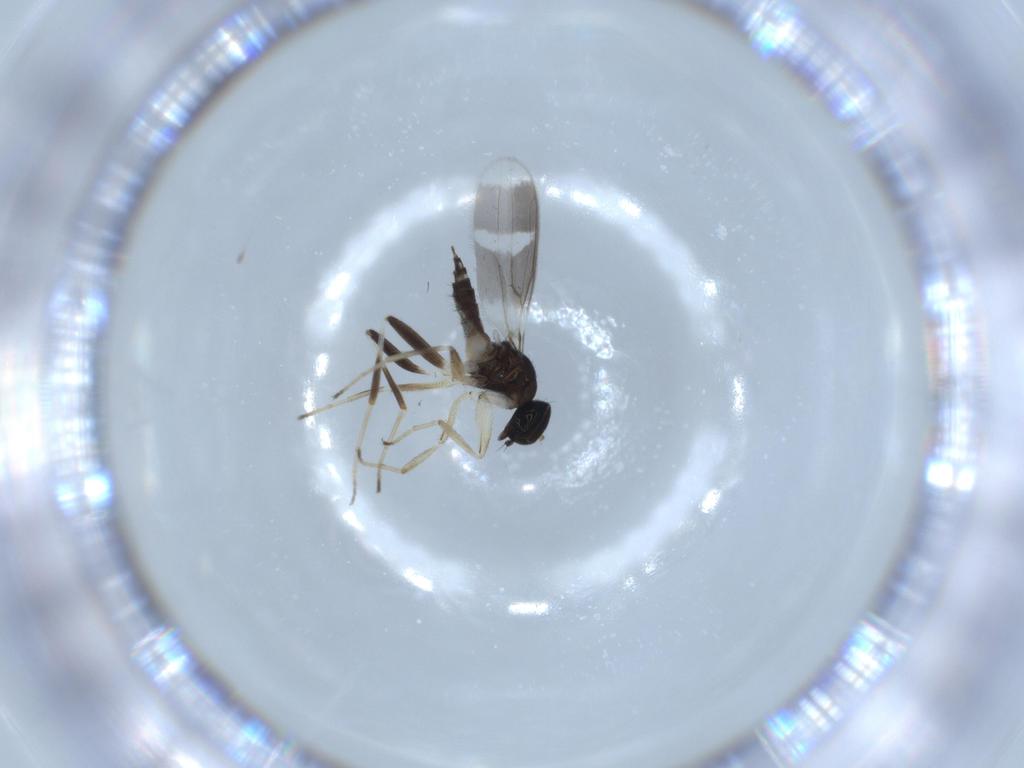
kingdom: Animalia
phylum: Arthropoda
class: Insecta
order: Diptera
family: Hybotidae
